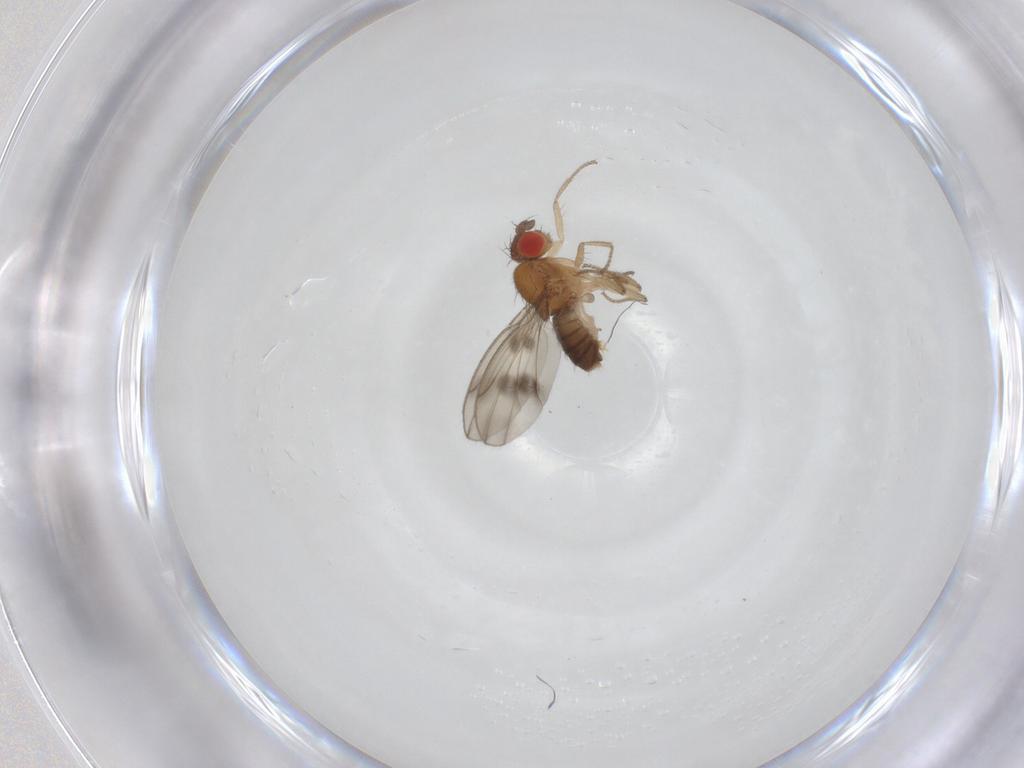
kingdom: Animalia
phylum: Arthropoda
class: Insecta
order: Diptera
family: Drosophilidae
